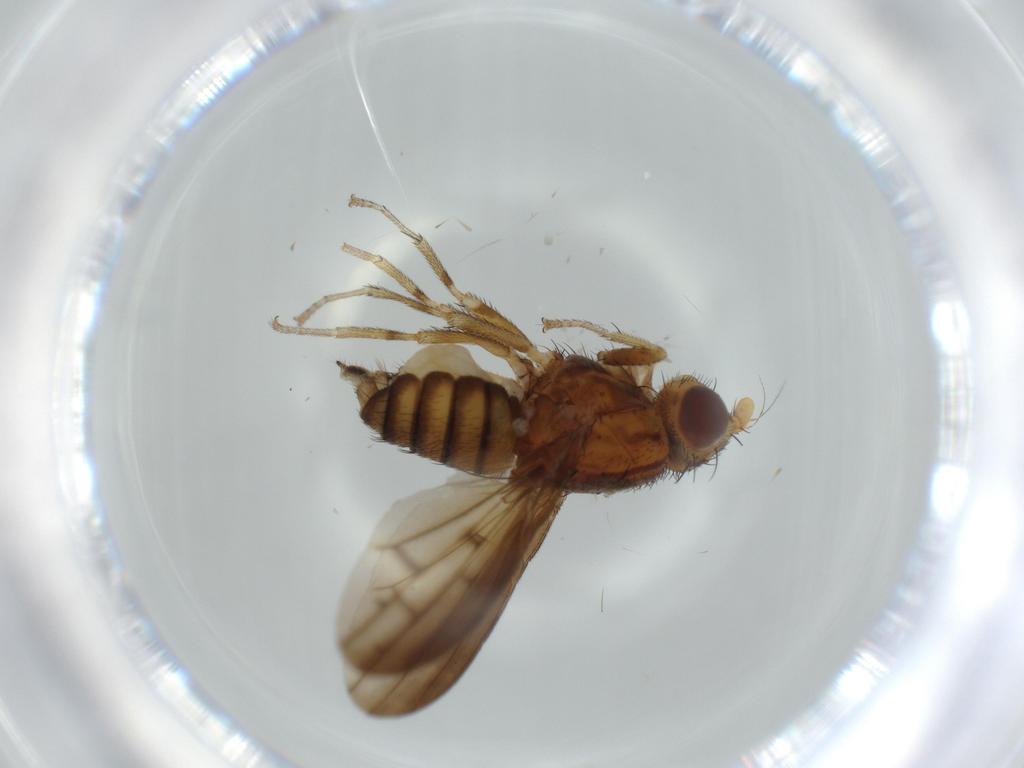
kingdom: Animalia
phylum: Arthropoda
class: Insecta
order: Diptera
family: Lauxaniidae
